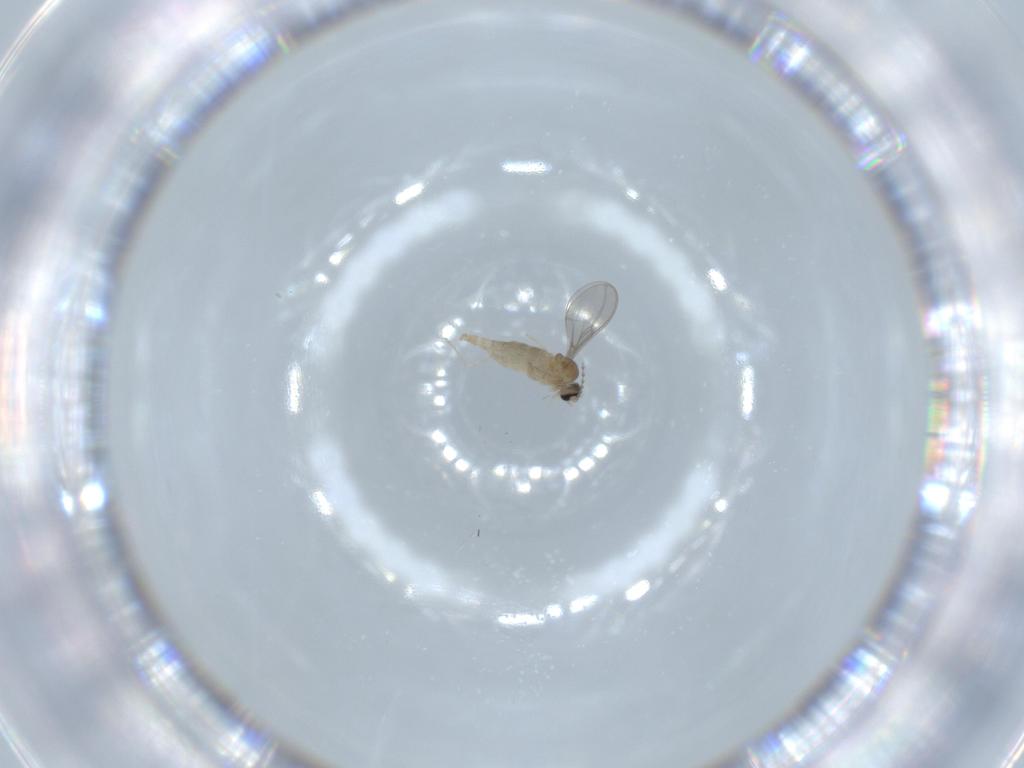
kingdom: Animalia
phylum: Arthropoda
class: Insecta
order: Diptera
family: Cecidomyiidae
